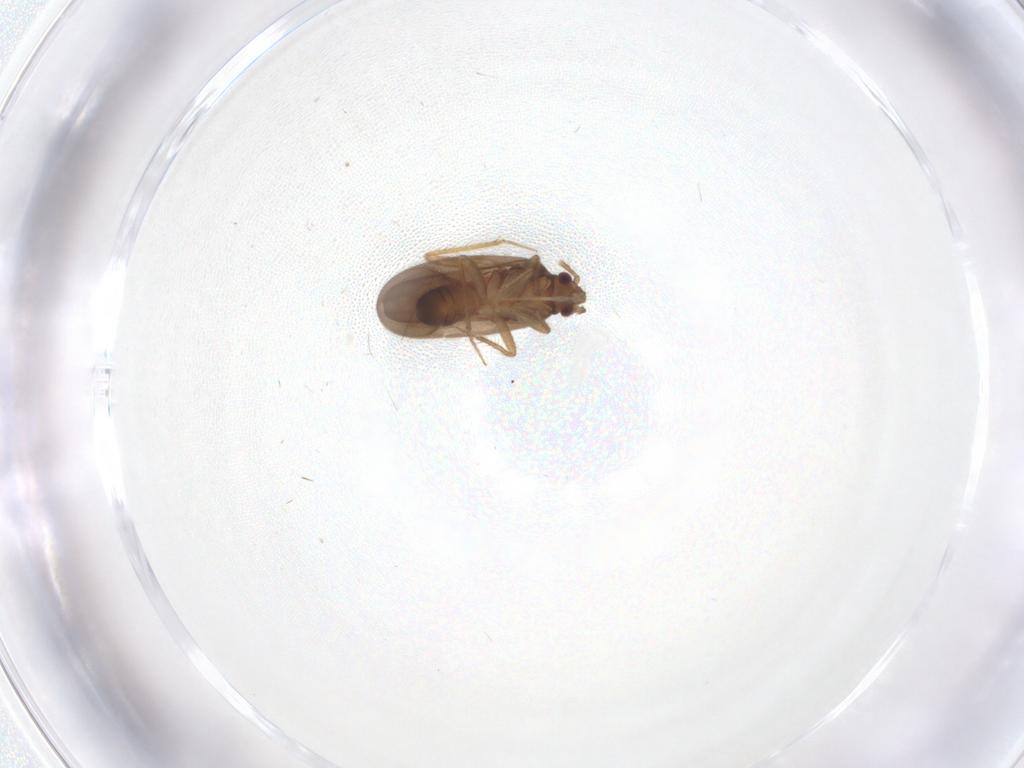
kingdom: Animalia
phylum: Arthropoda
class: Insecta
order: Hemiptera
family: Ceratocombidae
